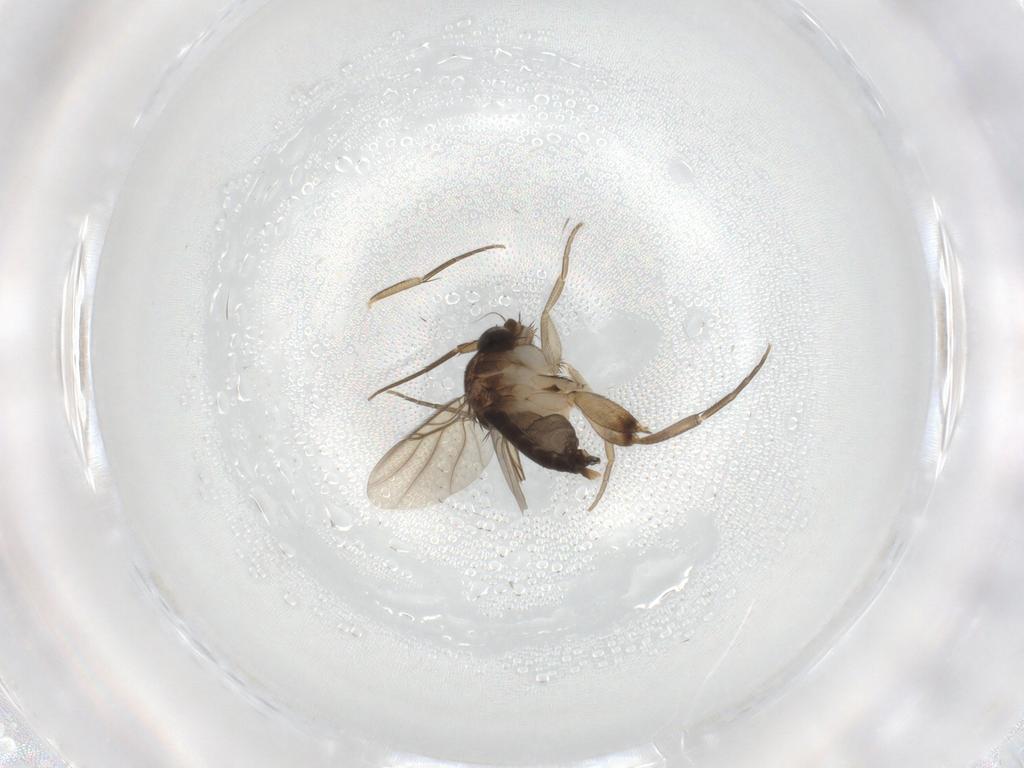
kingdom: Animalia
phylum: Arthropoda
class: Insecta
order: Diptera
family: Phoridae
